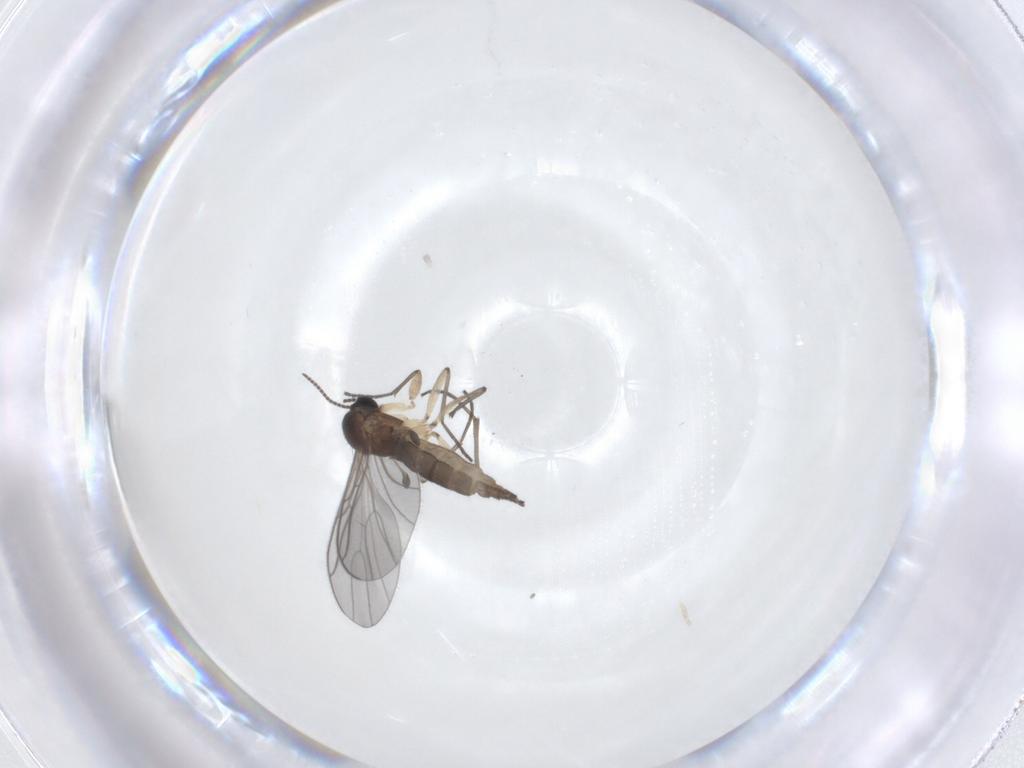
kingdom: Animalia
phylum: Arthropoda
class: Insecta
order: Diptera
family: Sciaridae
